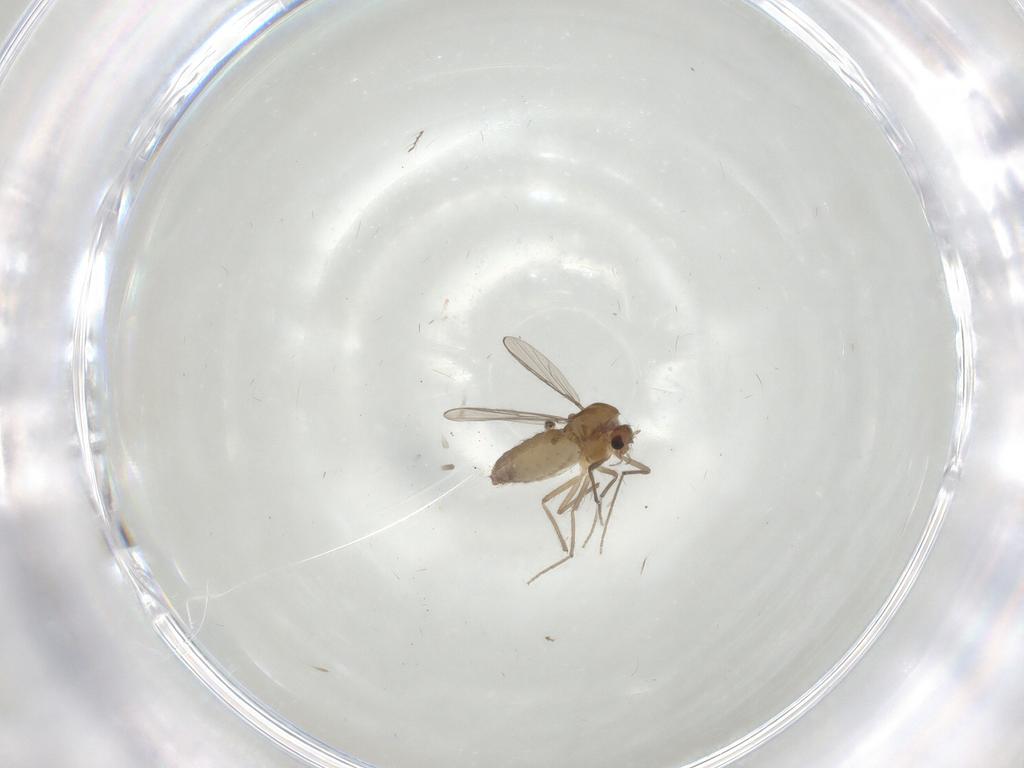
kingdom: Animalia
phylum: Arthropoda
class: Insecta
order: Diptera
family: Limoniidae
